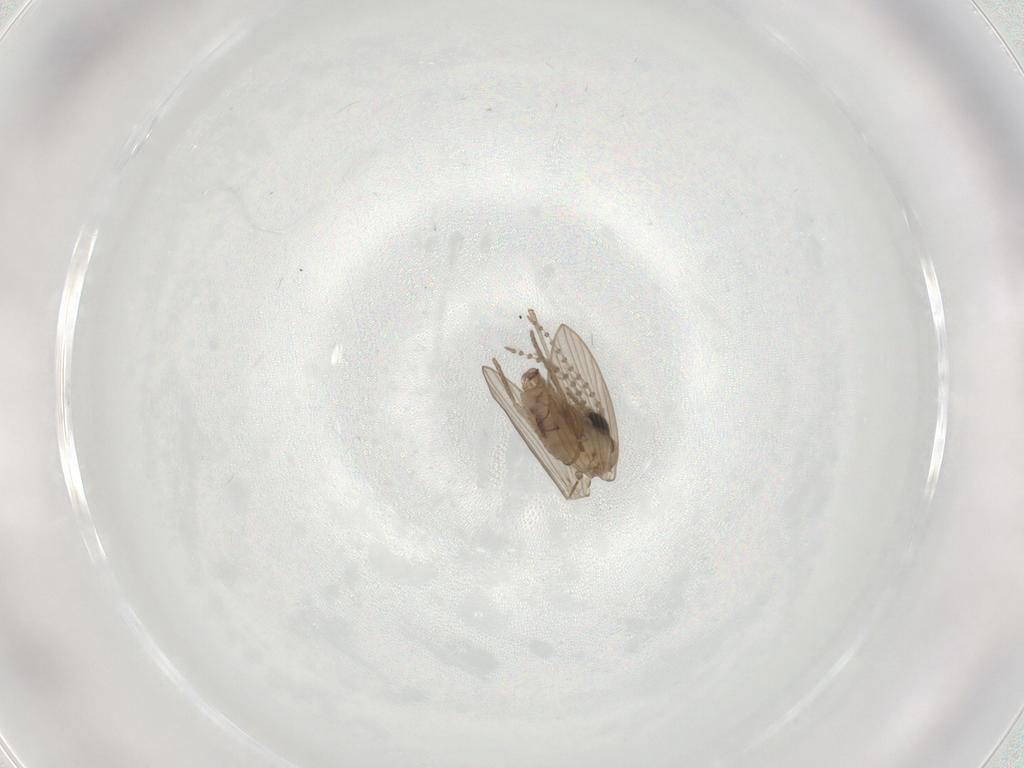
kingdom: Animalia
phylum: Arthropoda
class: Insecta
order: Diptera
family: Psychodidae
